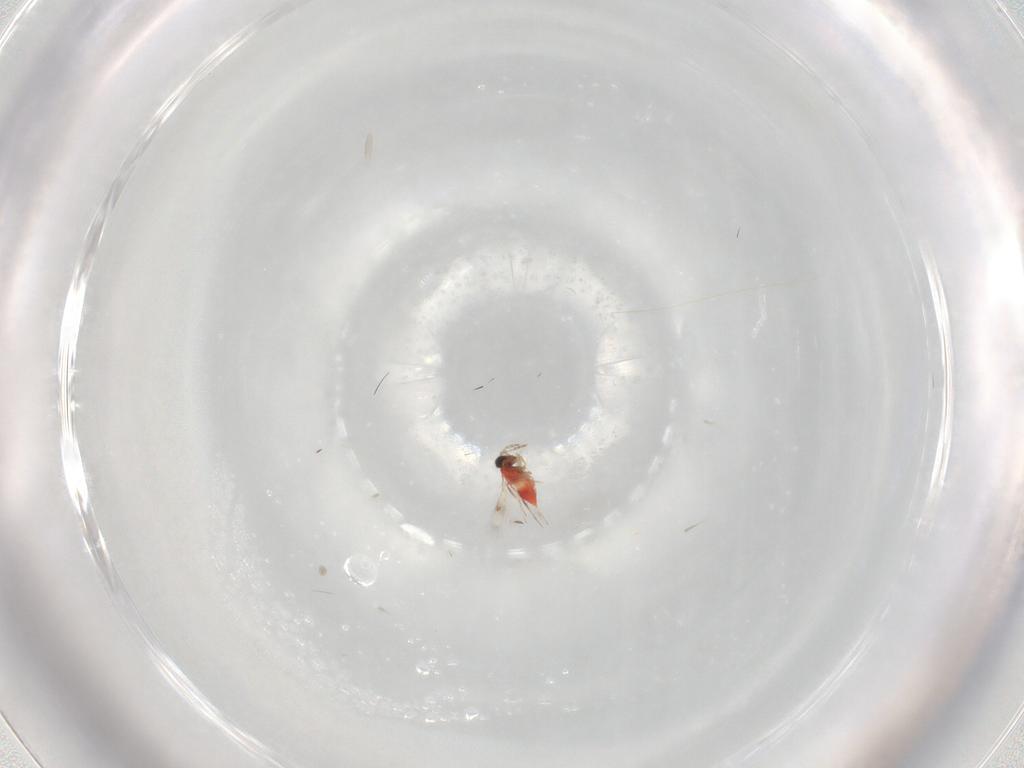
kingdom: Animalia
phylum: Arthropoda
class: Insecta
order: Hymenoptera
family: Trichogrammatidae
